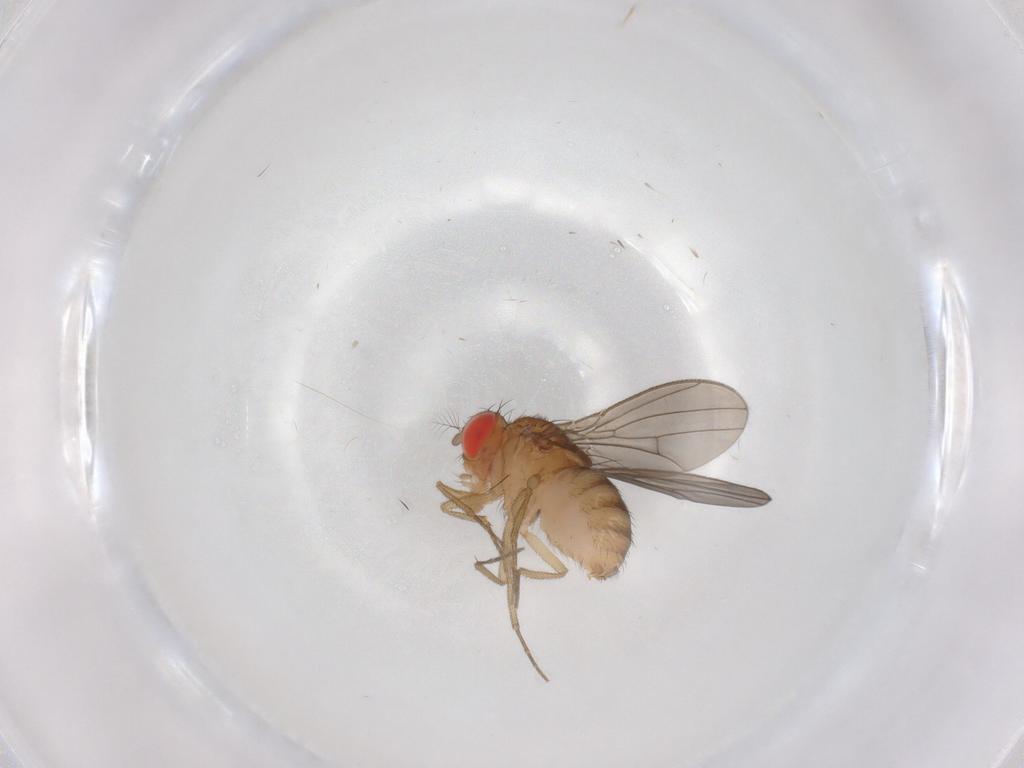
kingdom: Animalia
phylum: Arthropoda
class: Insecta
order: Diptera
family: Drosophilidae
